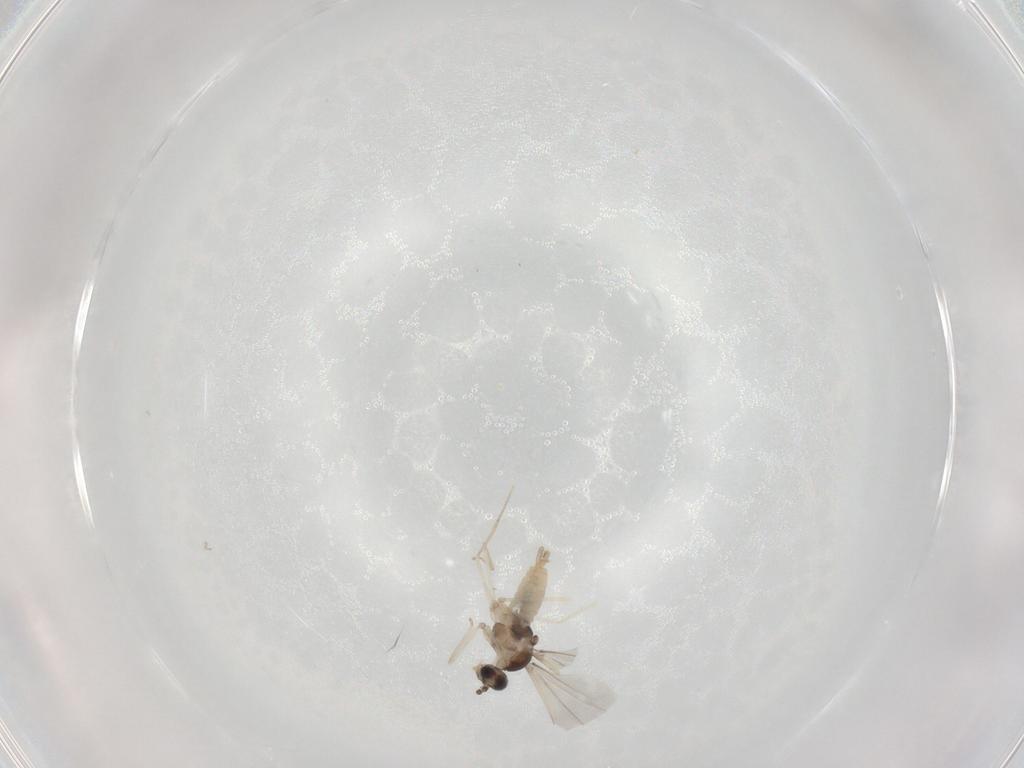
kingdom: Animalia
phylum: Arthropoda
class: Insecta
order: Diptera
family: Cecidomyiidae
